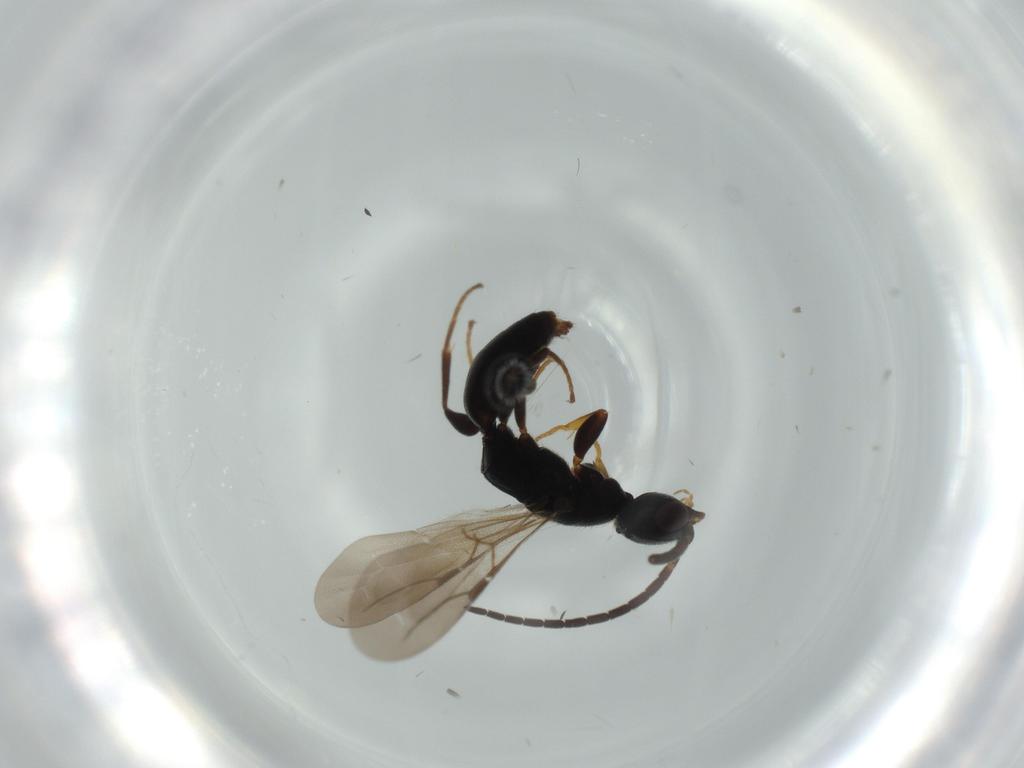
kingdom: Animalia
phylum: Arthropoda
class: Insecta
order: Hymenoptera
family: Bethylidae
